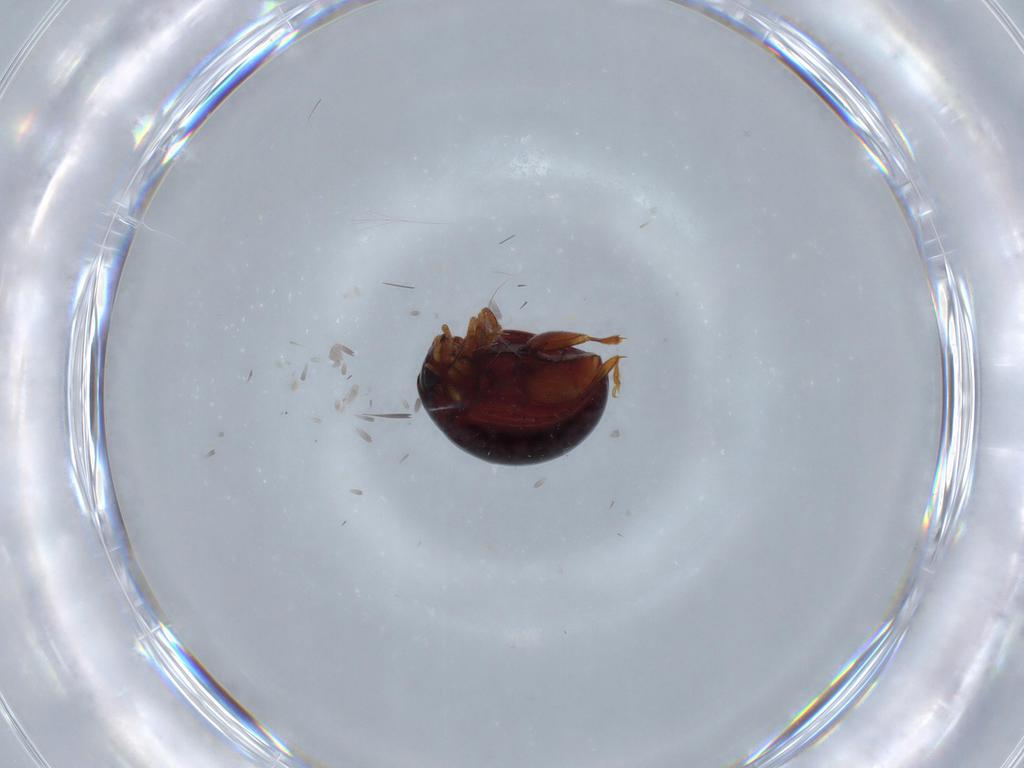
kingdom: Animalia
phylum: Arthropoda
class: Insecta
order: Coleoptera
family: Chrysomelidae
